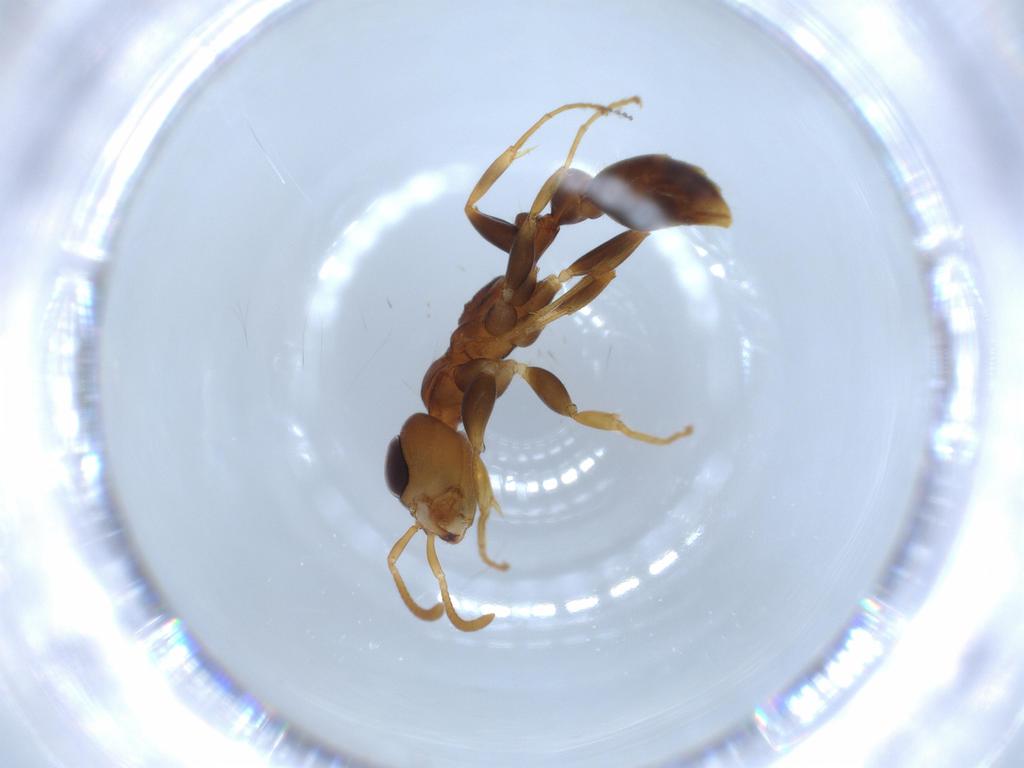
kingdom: Animalia
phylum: Arthropoda
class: Insecta
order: Hymenoptera
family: Formicidae
